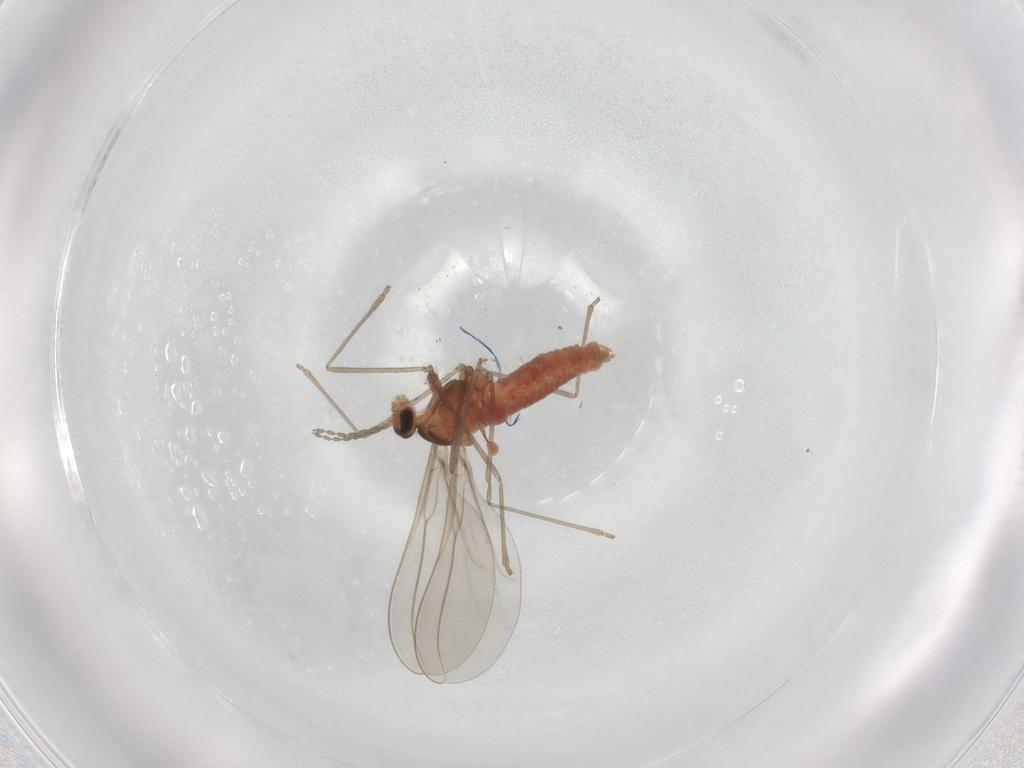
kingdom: Animalia
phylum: Arthropoda
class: Insecta
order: Diptera
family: Cecidomyiidae
